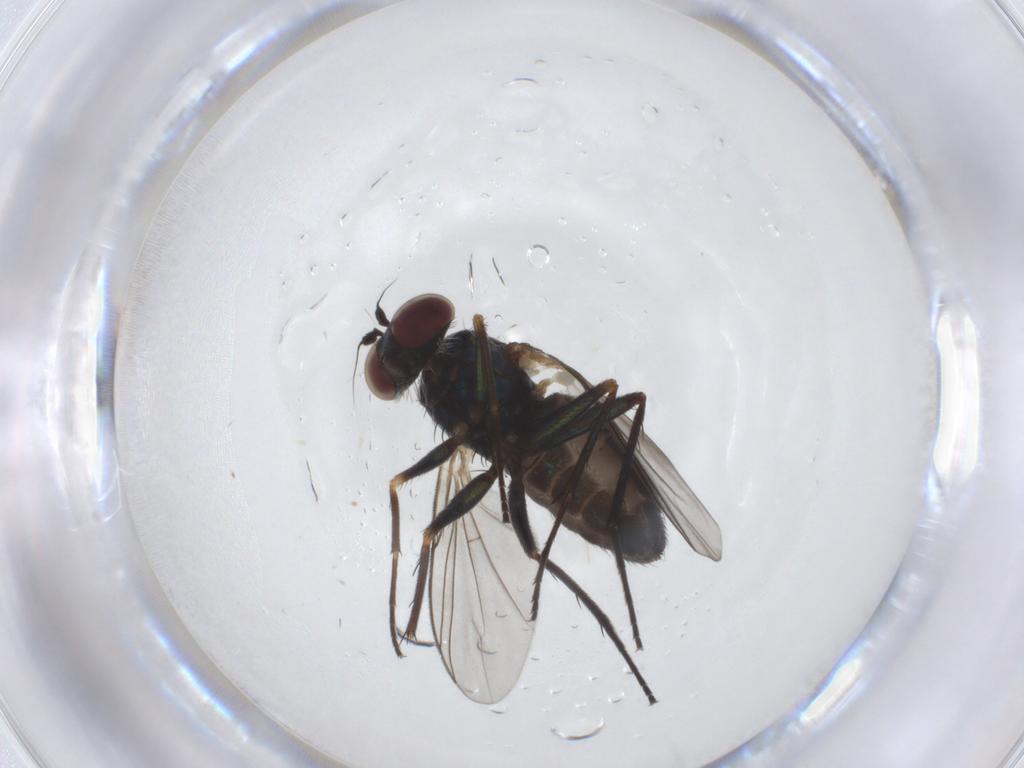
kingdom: Animalia
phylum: Arthropoda
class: Insecta
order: Diptera
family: Dolichopodidae
